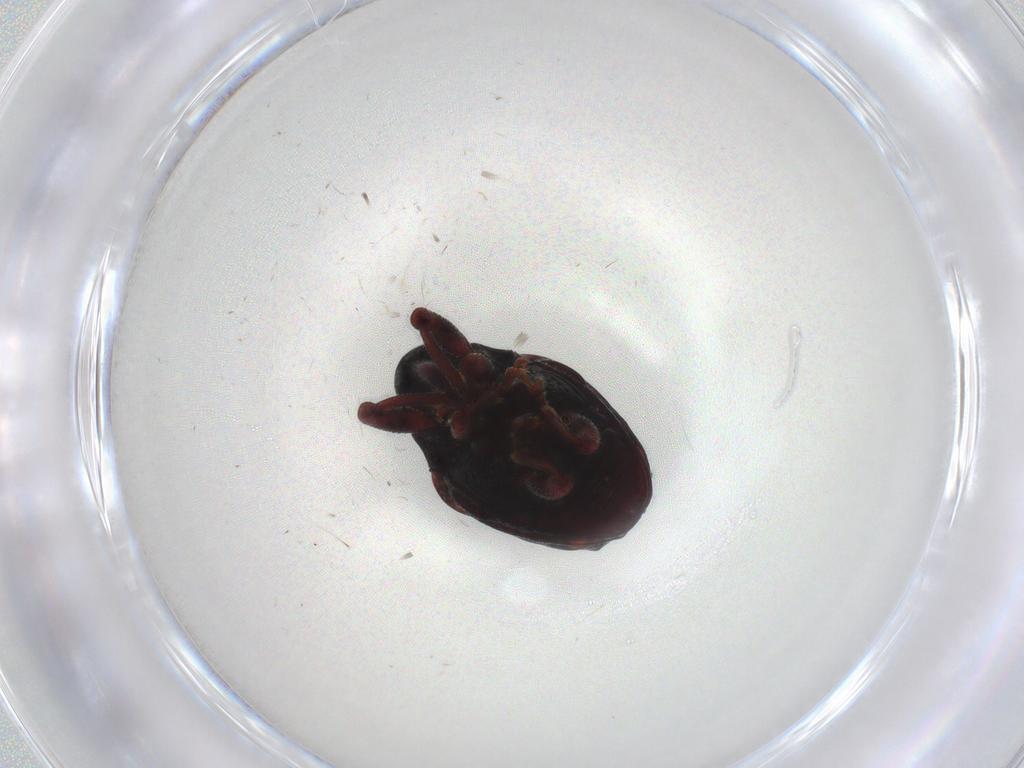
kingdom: Animalia
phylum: Arthropoda
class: Insecta
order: Coleoptera
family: Curculionidae
